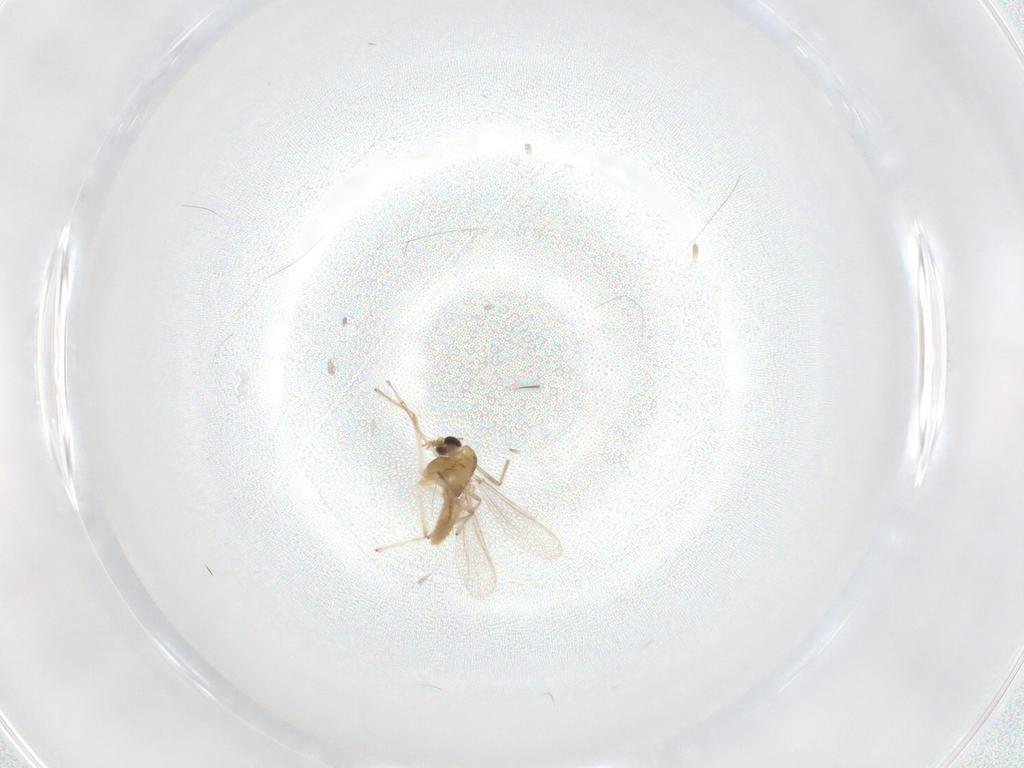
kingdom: Animalia
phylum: Arthropoda
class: Insecta
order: Diptera
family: Chironomidae
